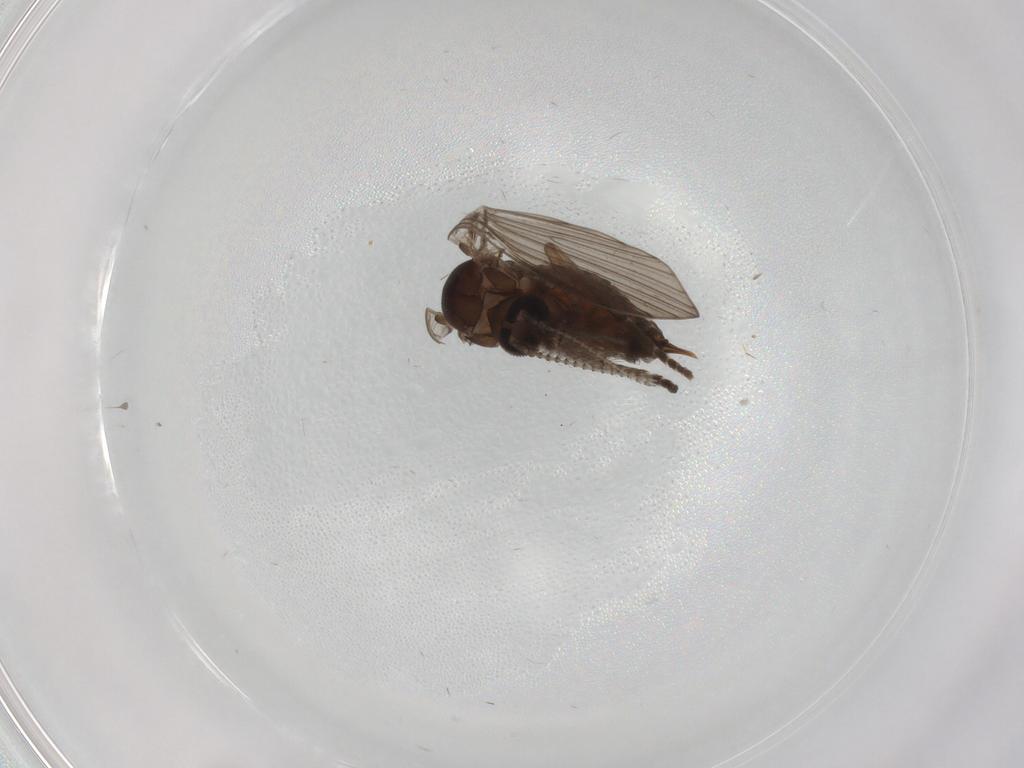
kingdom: Animalia
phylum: Arthropoda
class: Insecta
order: Diptera
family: Psychodidae
